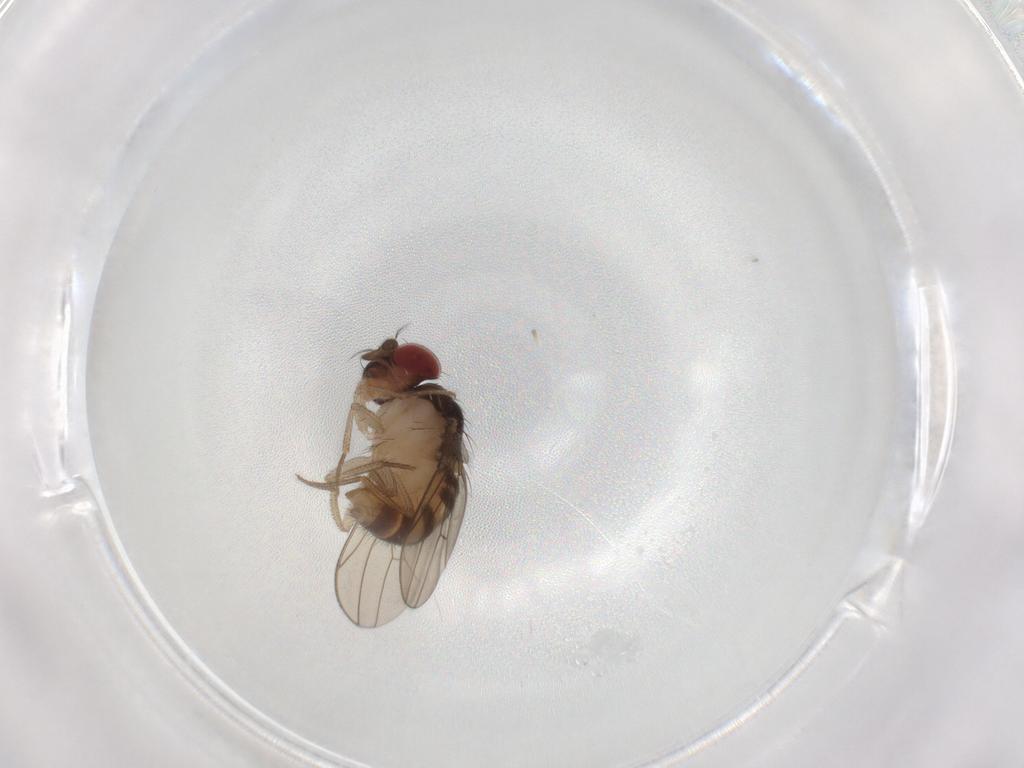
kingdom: Animalia
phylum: Arthropoda
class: Insecta
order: Diptera
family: Drosophilidae
